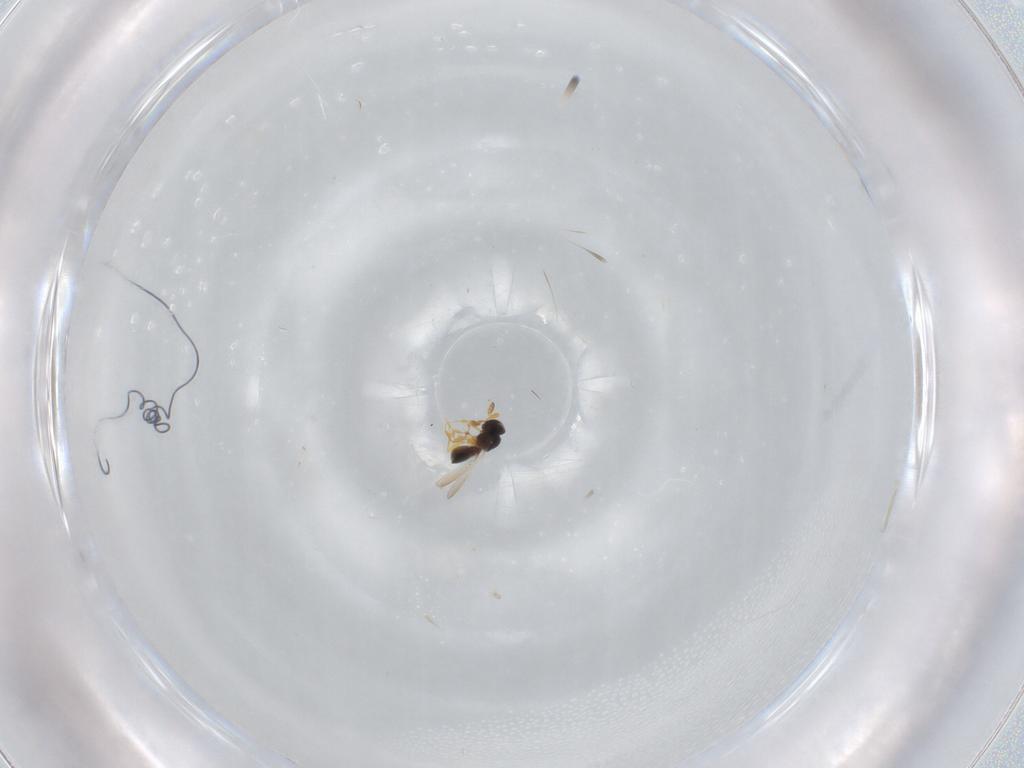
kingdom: Animalia
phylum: Arthropoda
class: Insecta
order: Hymenoptera
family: Platygastridae
